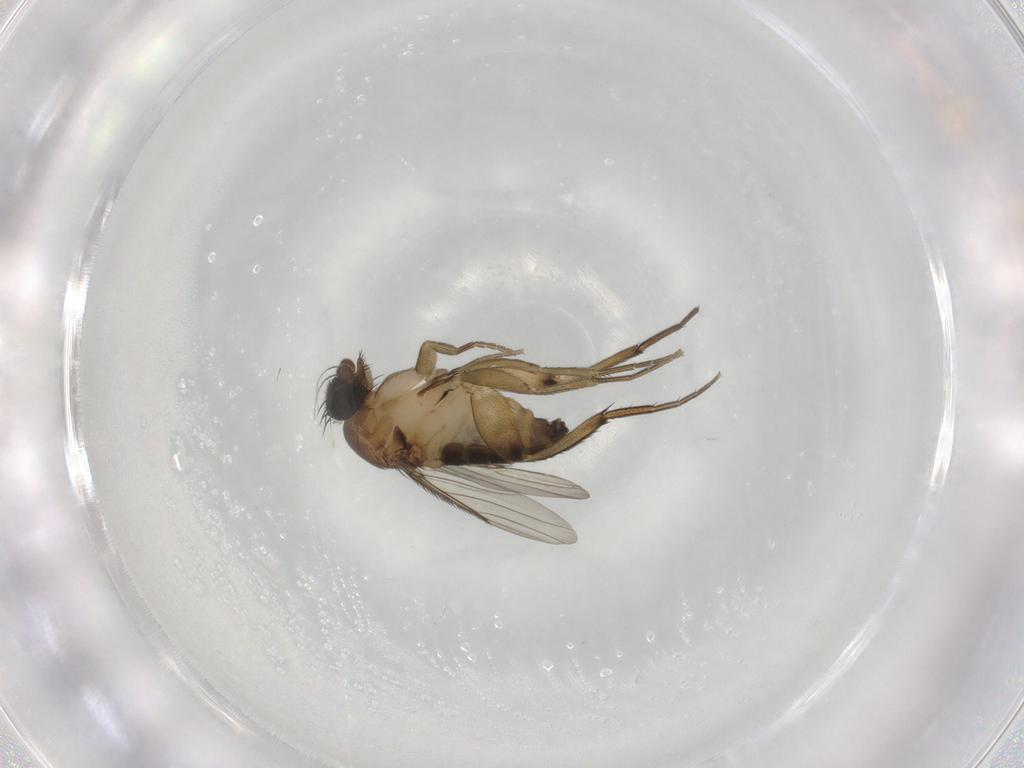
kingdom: Animalia
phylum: Arthropoda
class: Insecta
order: Diptera
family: Phoridae
